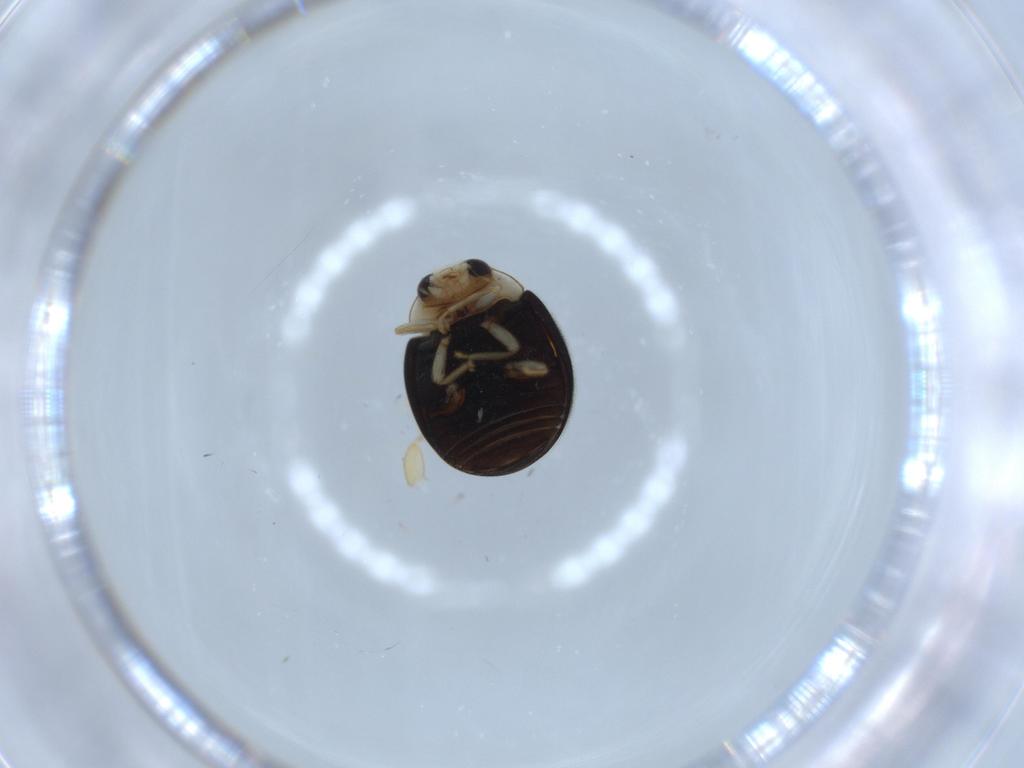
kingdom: Animalia
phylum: Arthropoda
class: Insecta
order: Coleoptera
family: Coccinellidae
